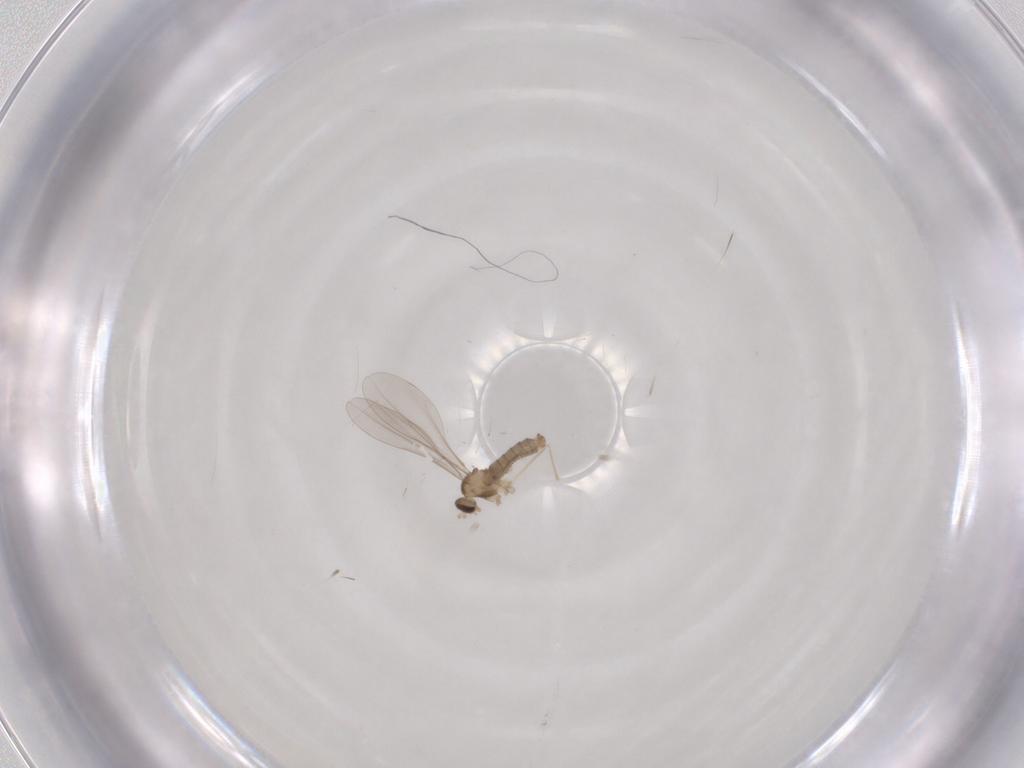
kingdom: Animalia
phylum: Arthropoda
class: Insecta
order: Diptera
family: Cecidomyiidae
